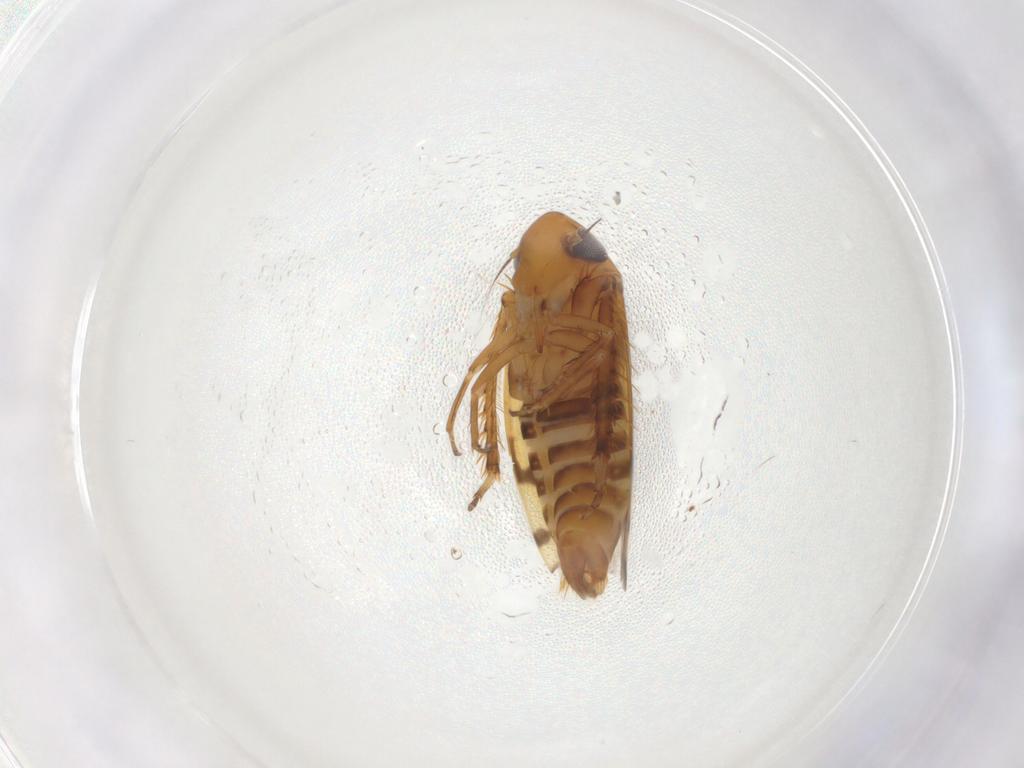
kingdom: Animalia
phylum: Arthropoda
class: Insecta
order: Hemiptera
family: Cicadellidae
